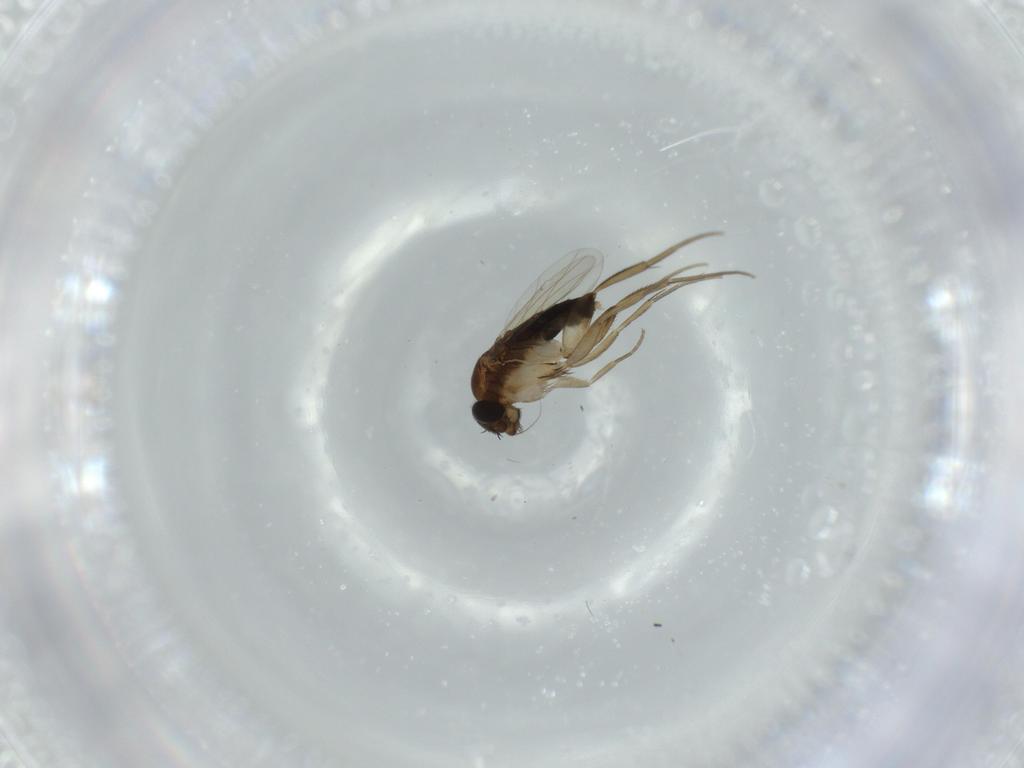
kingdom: Animalia
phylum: Arthropoda
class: Insecta
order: Diptera
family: Phoridae
